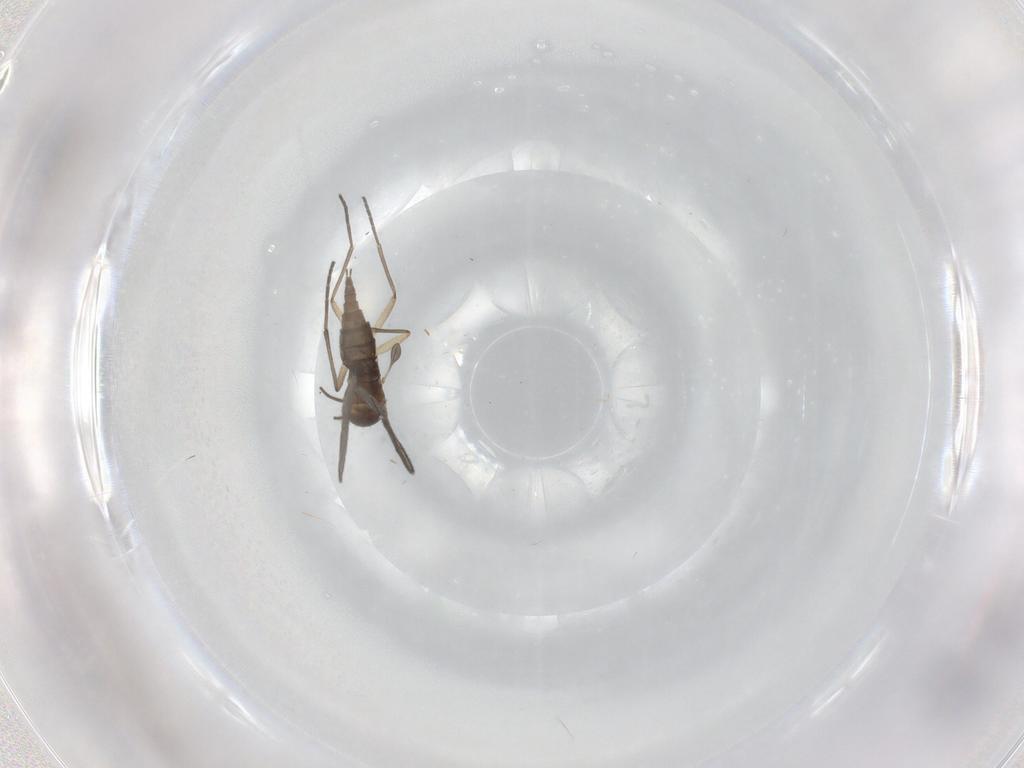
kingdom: Animalia
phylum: Arthropoda
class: Insecta
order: Diptera
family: Sciaridae
